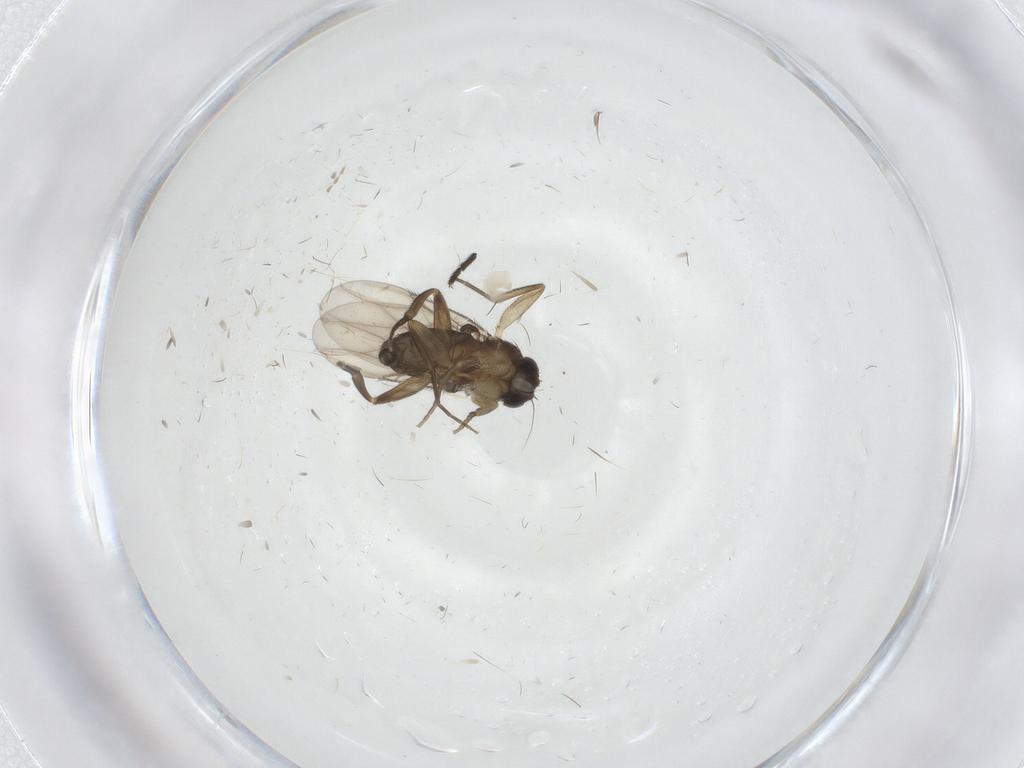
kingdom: Animalia
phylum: Arthropoda
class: Insecta
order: Diptera
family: Phoridae
